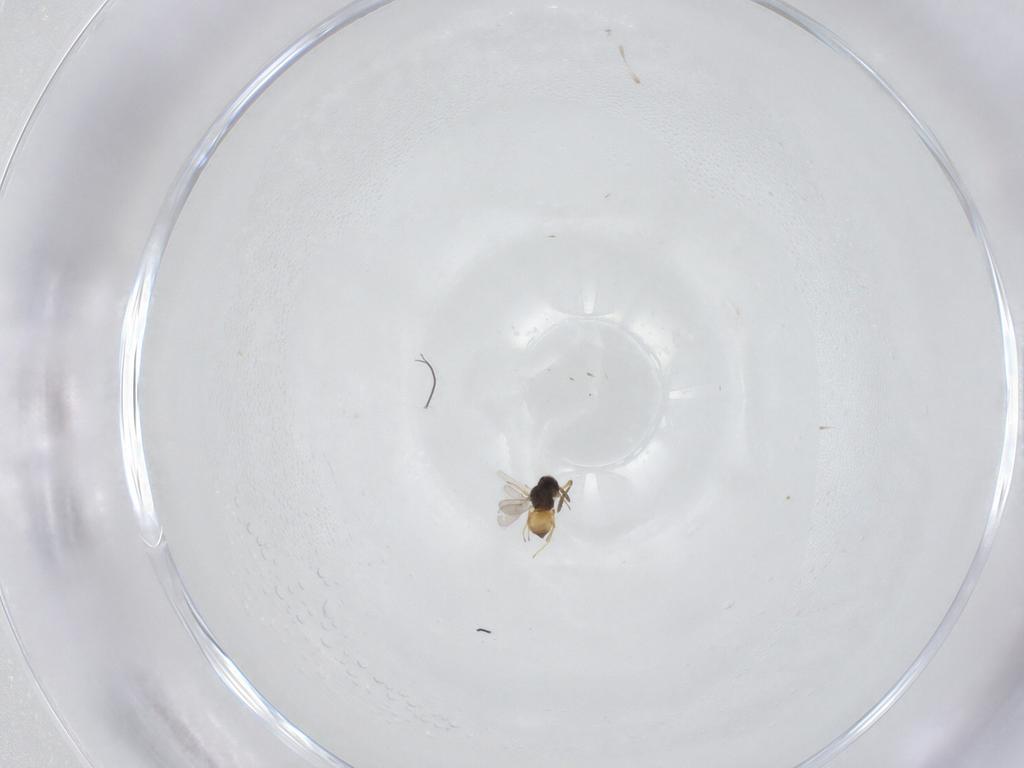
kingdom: Animalia
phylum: Arthropoda
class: Insecta
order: Hymenoptera
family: Scelionidae
